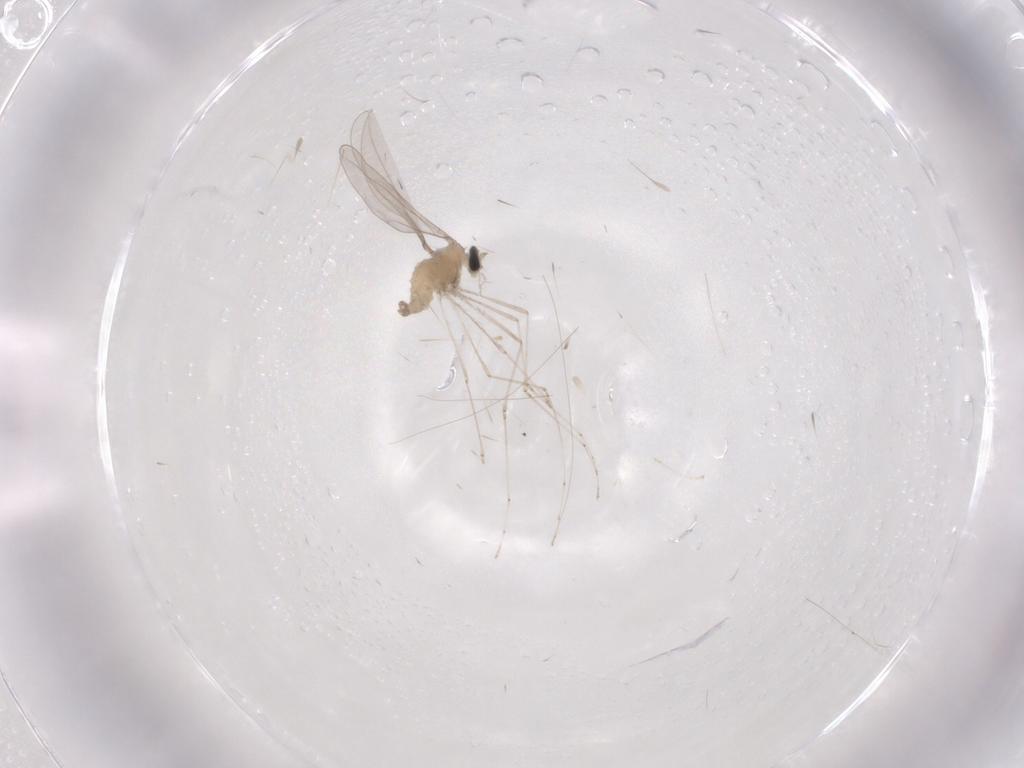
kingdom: Animalia
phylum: Arthropoda
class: Insecta
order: Diptera
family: Cecidomyiidae
